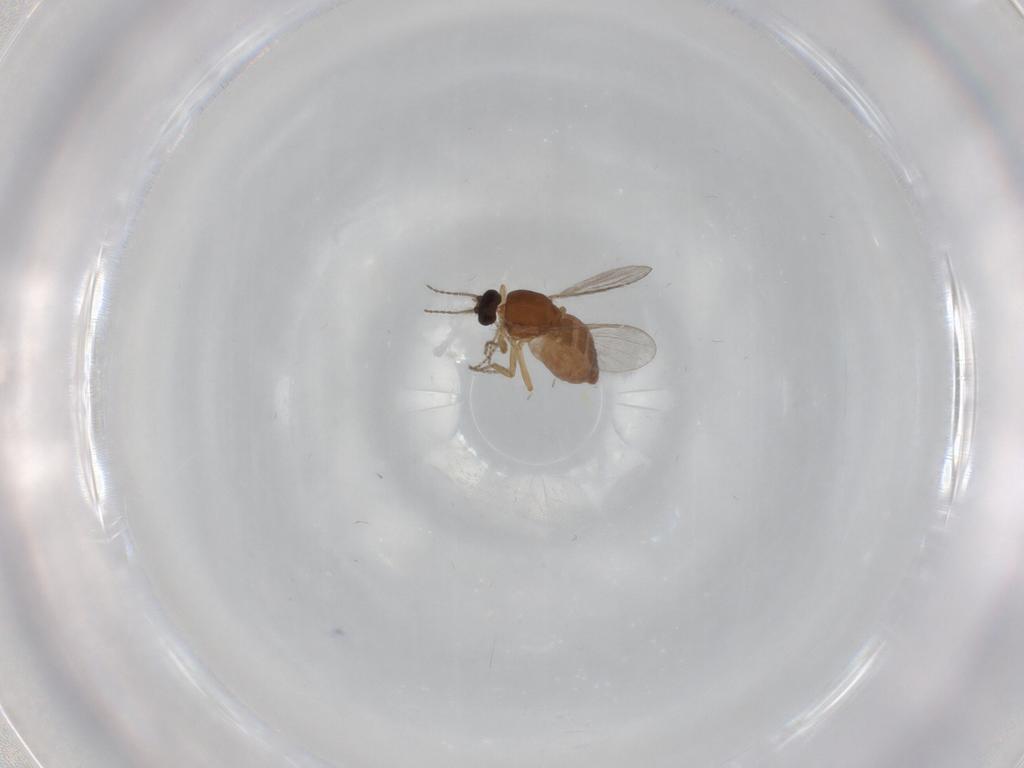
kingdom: Animalia
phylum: Arthropoda
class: Insecta
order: Diptera
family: Ceratopogonidae
